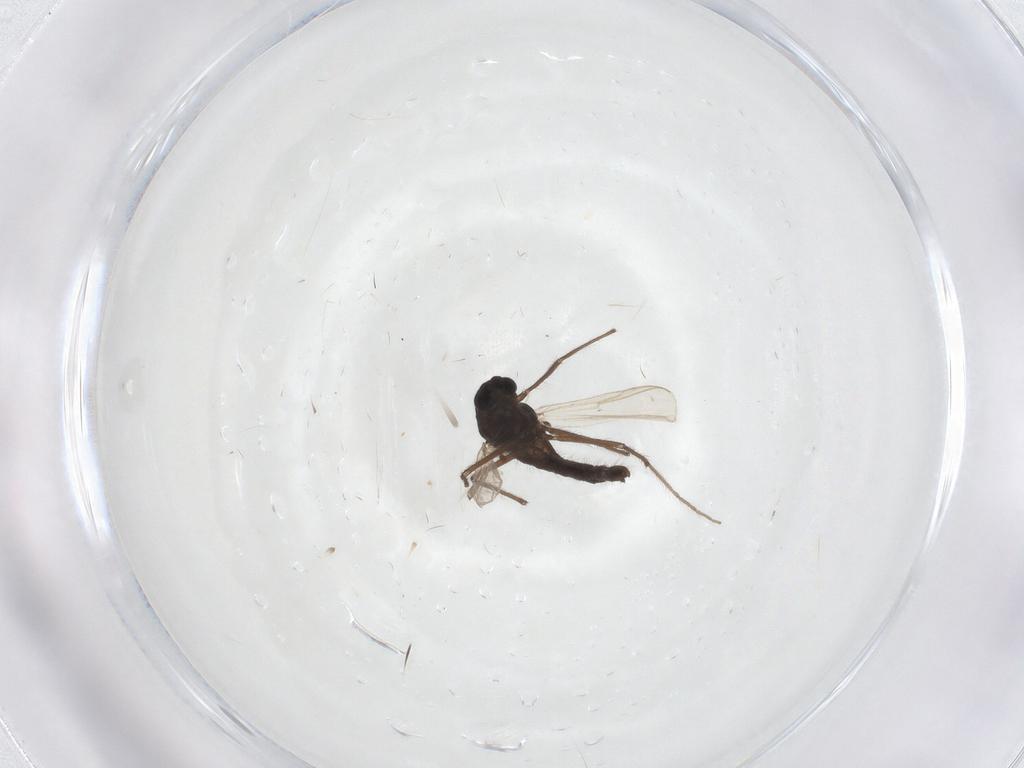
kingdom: Animalia
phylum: Arthropoda
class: Insecta
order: Diptera
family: Chironomidae
